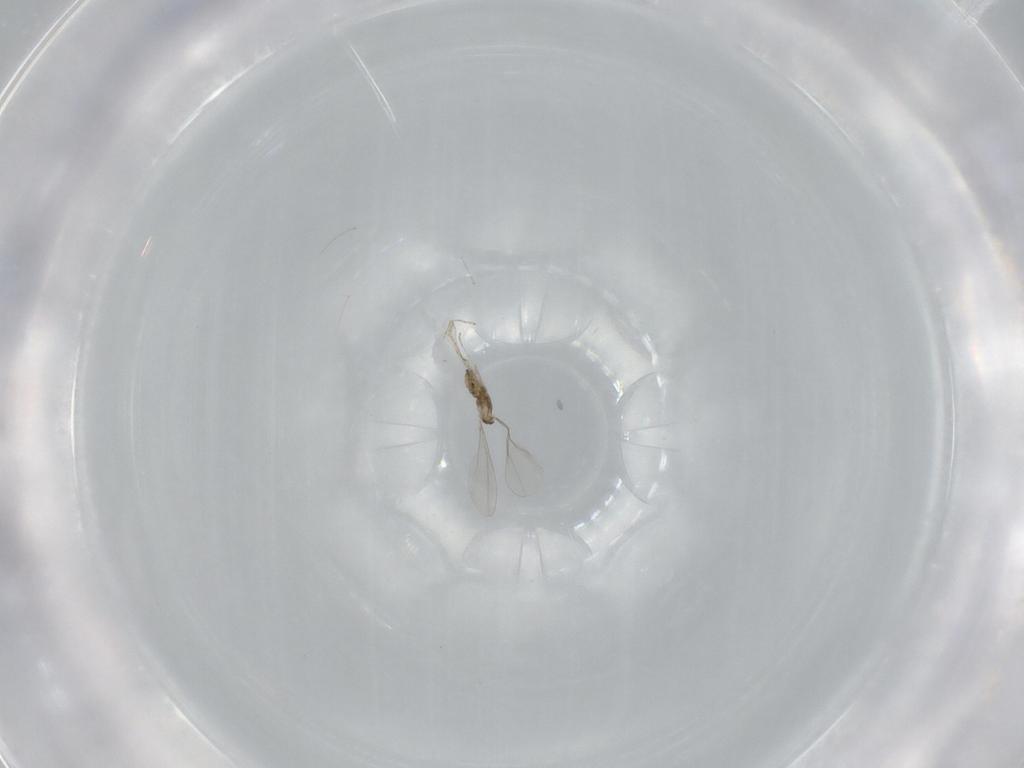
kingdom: Animalia
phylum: Arthropoda
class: Insecta
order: Diptera
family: Cecidomyiidae
